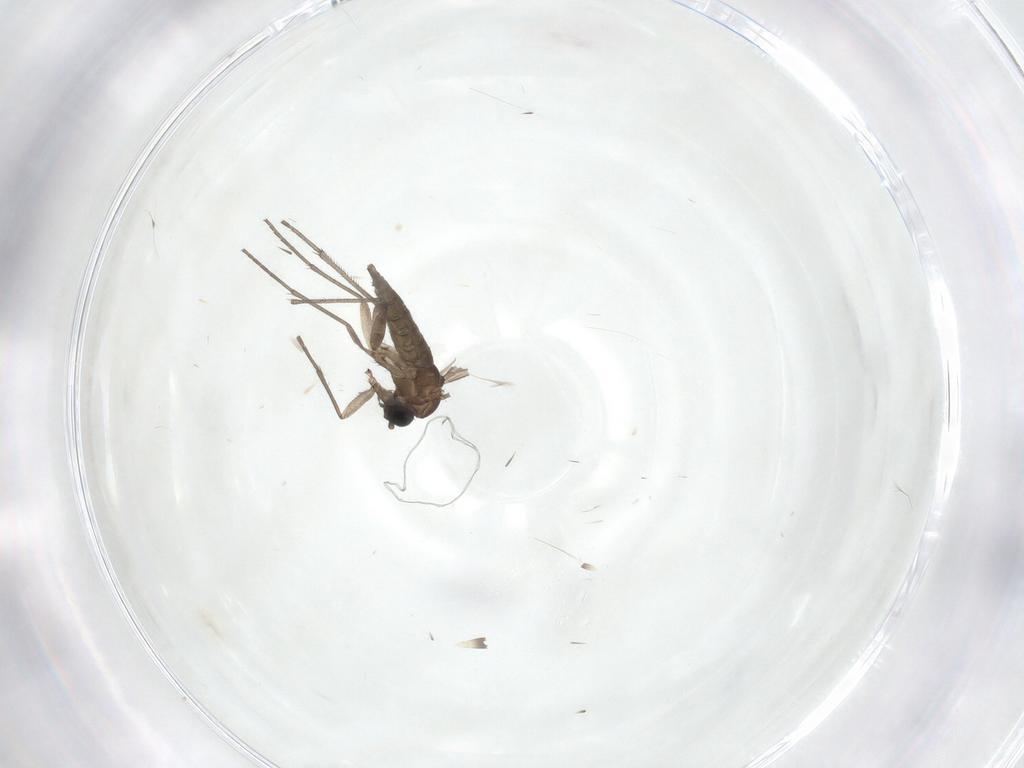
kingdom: Animalia
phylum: Arthropoda
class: Insecta
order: Diptera
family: Sciaridae
